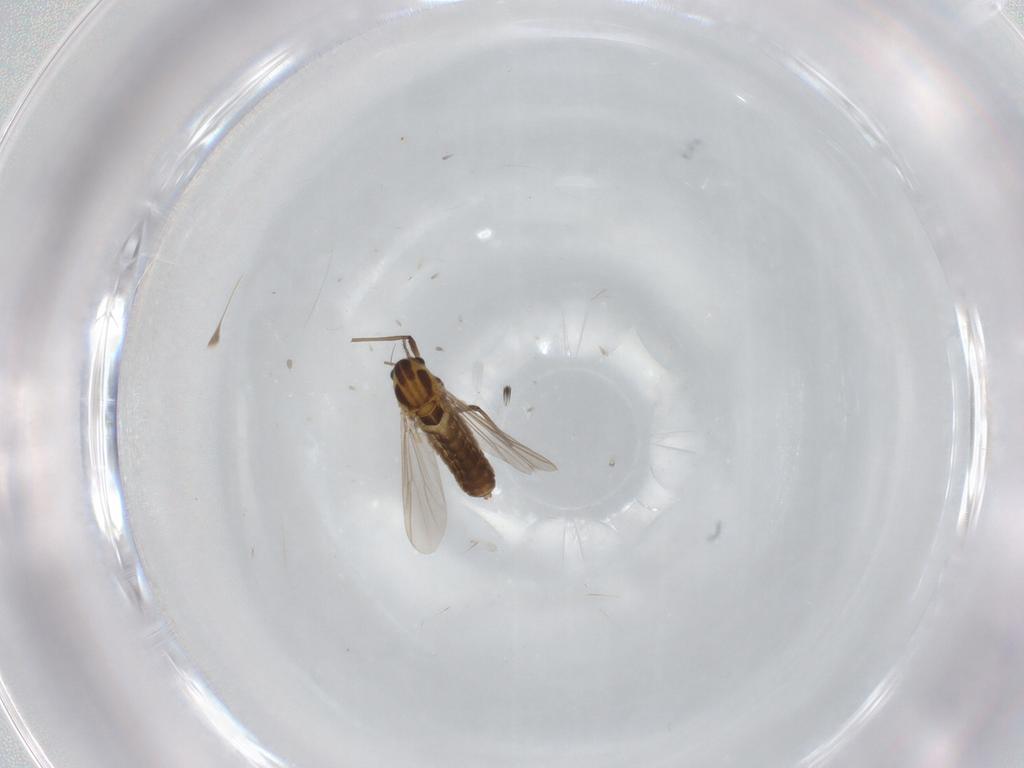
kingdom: Animalia
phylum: Arthropoda
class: Insecta
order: Diptera
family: Chironomidae
